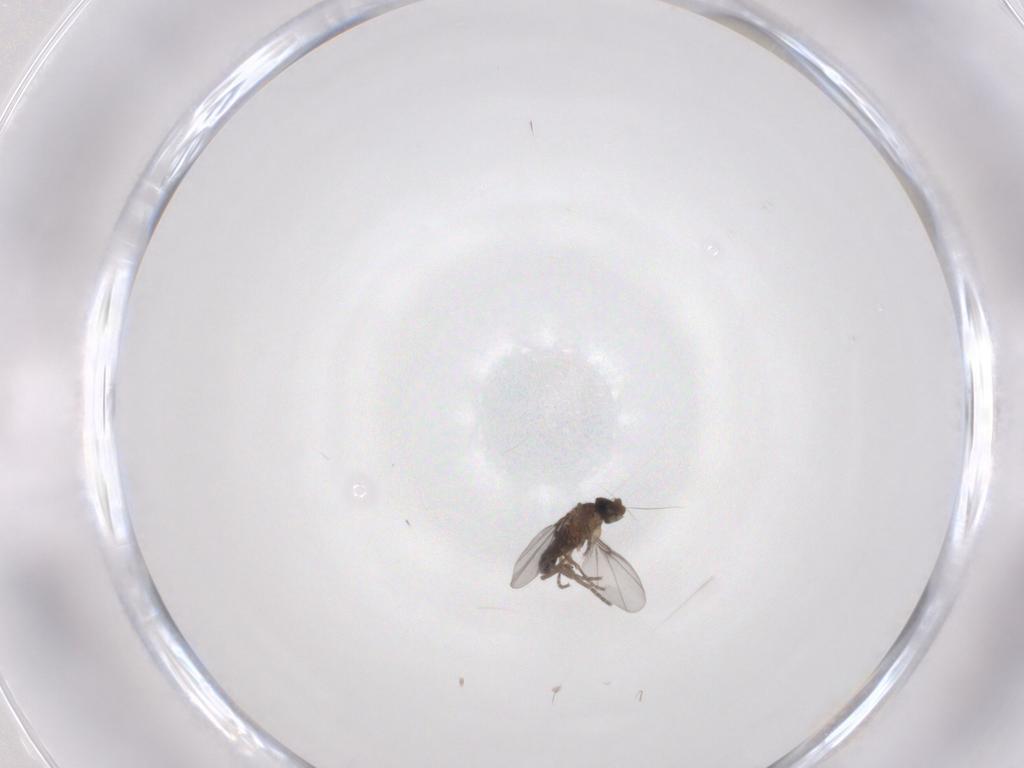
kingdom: Animalia
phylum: Arthropoda
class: Insecta
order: Diptera
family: Phoridae
